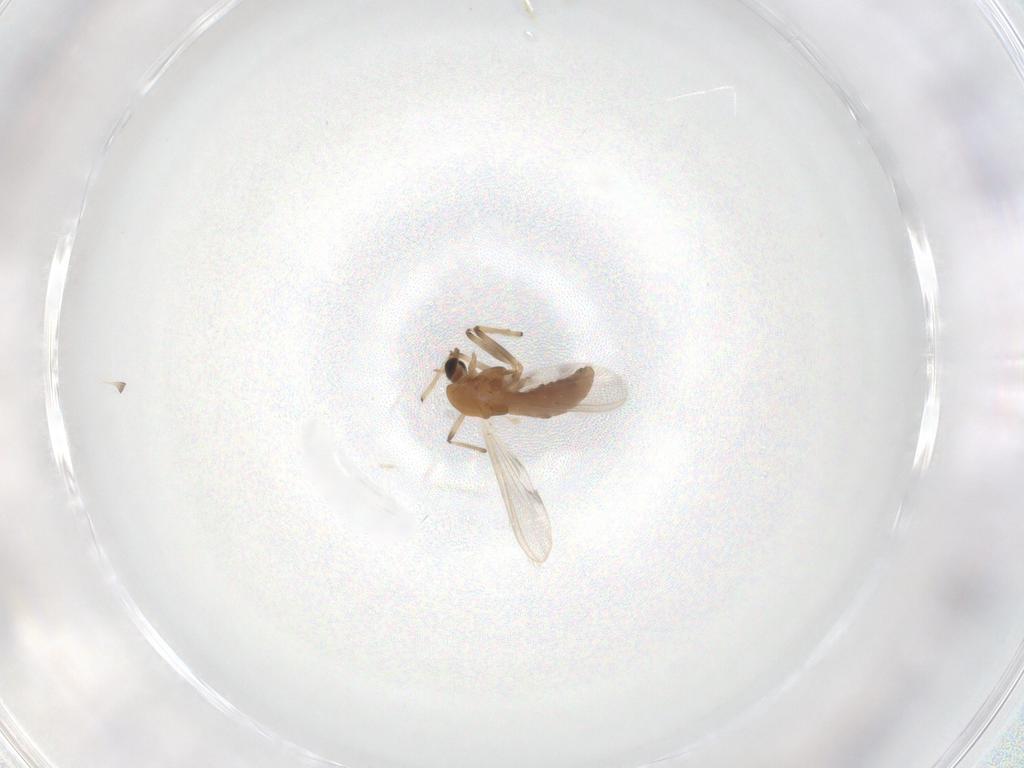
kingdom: Animalia
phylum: Arthropoda
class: Insecta
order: Diptera
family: Chironomidae
